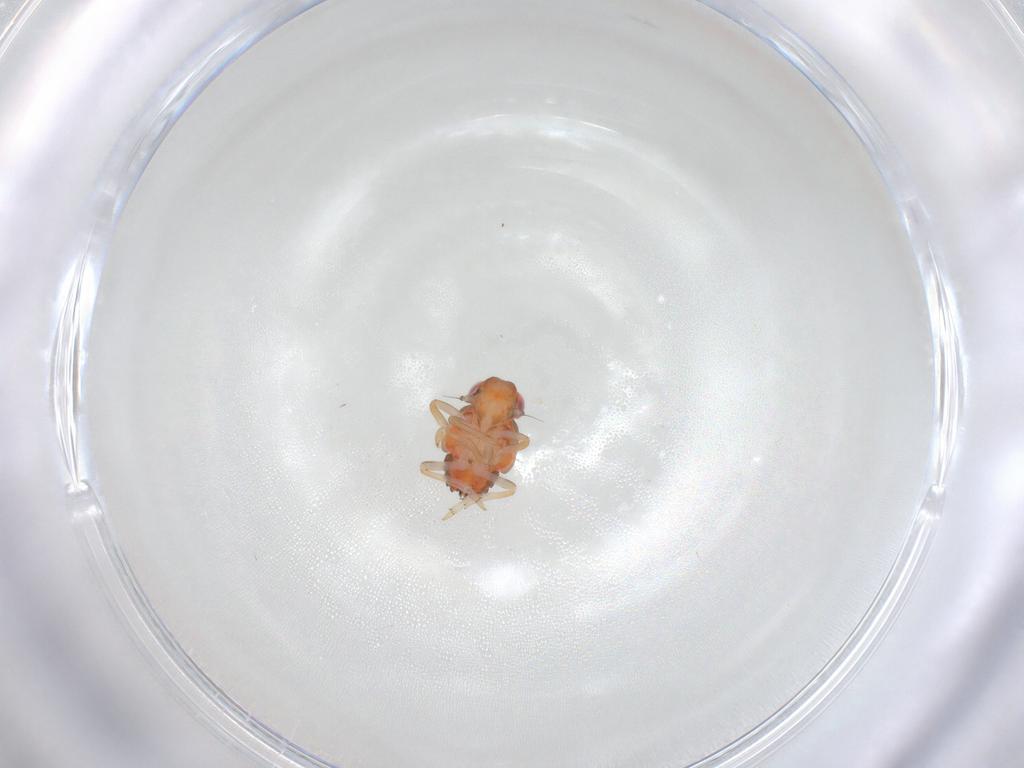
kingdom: Animalia
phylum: Arthropoda
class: Insecta
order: Hemiptera
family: Issidae
